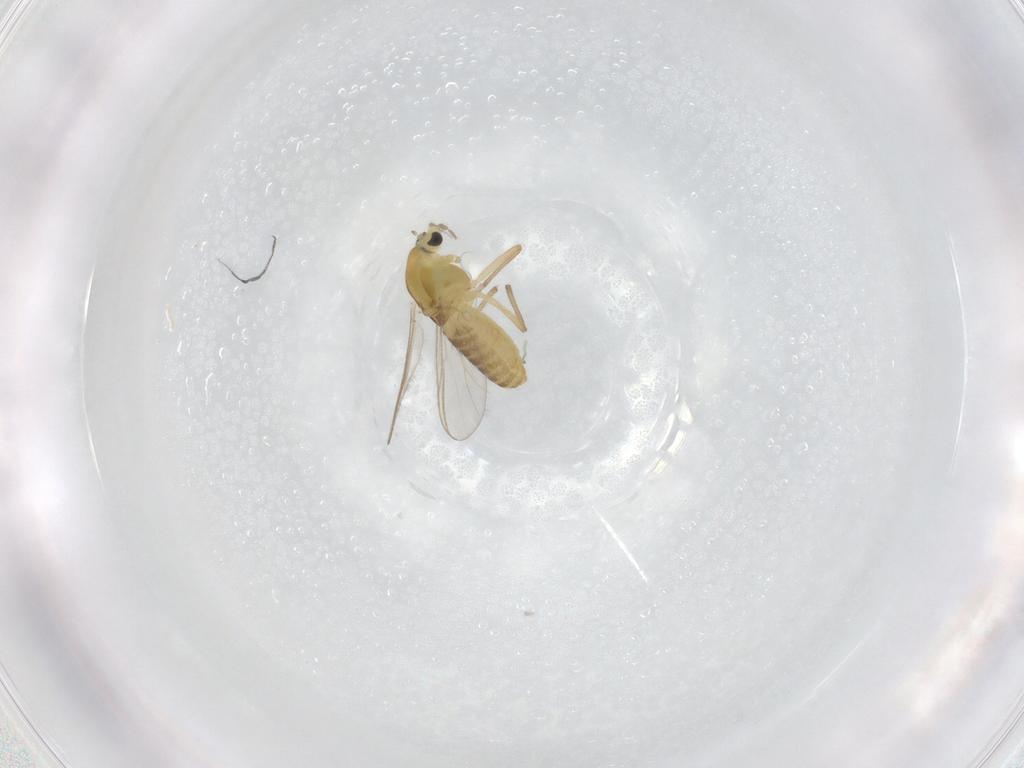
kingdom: Animalia
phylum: Arthropoda
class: Insecta
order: Diptera
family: Chironomidae
